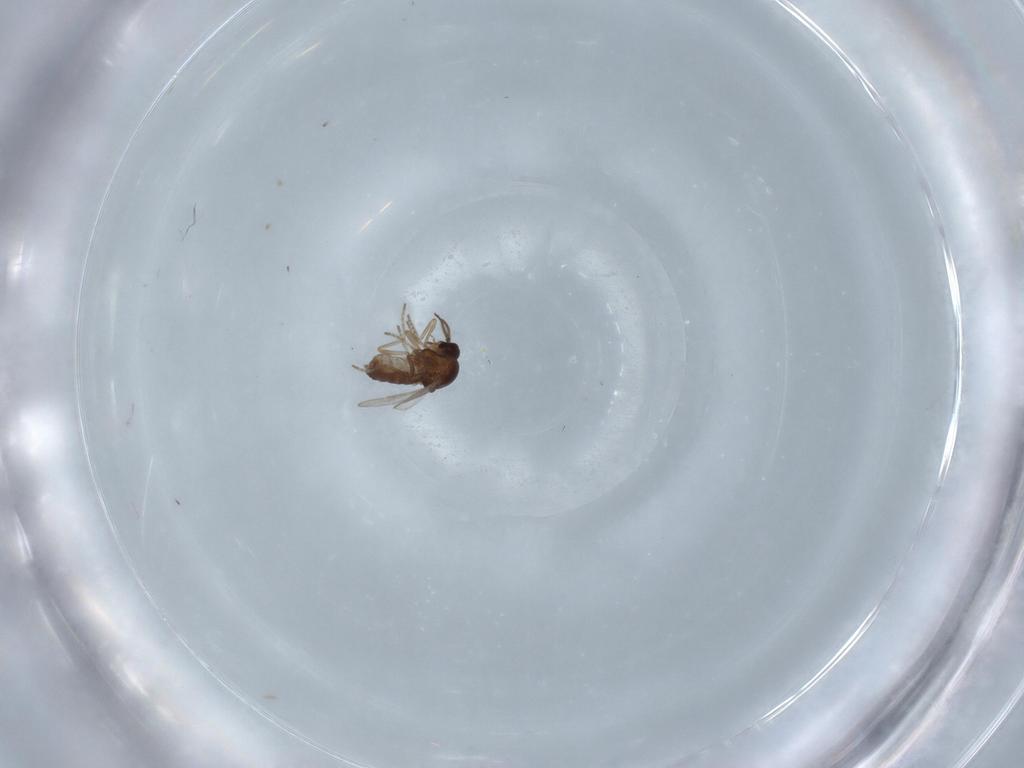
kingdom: Animalia
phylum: Arthropoda
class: Insecta
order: Diptera
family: Ceratopogonidae
